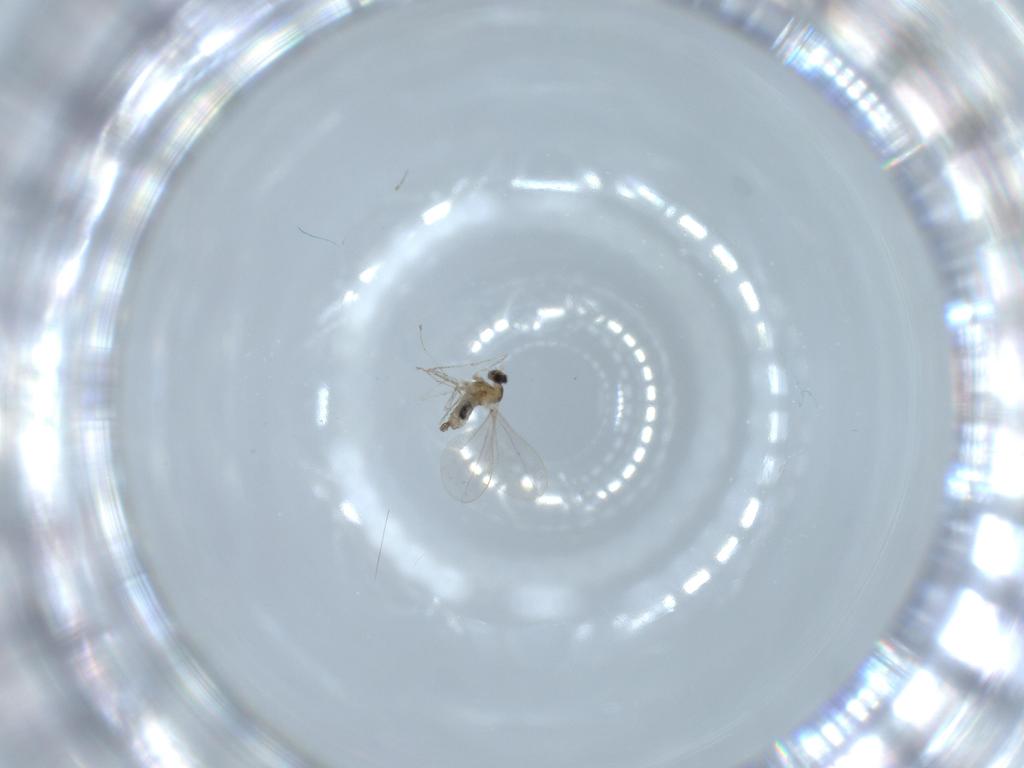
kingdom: Animalia
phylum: Arthropoda
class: Insecta
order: Diptera
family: Cecidomyiidae
